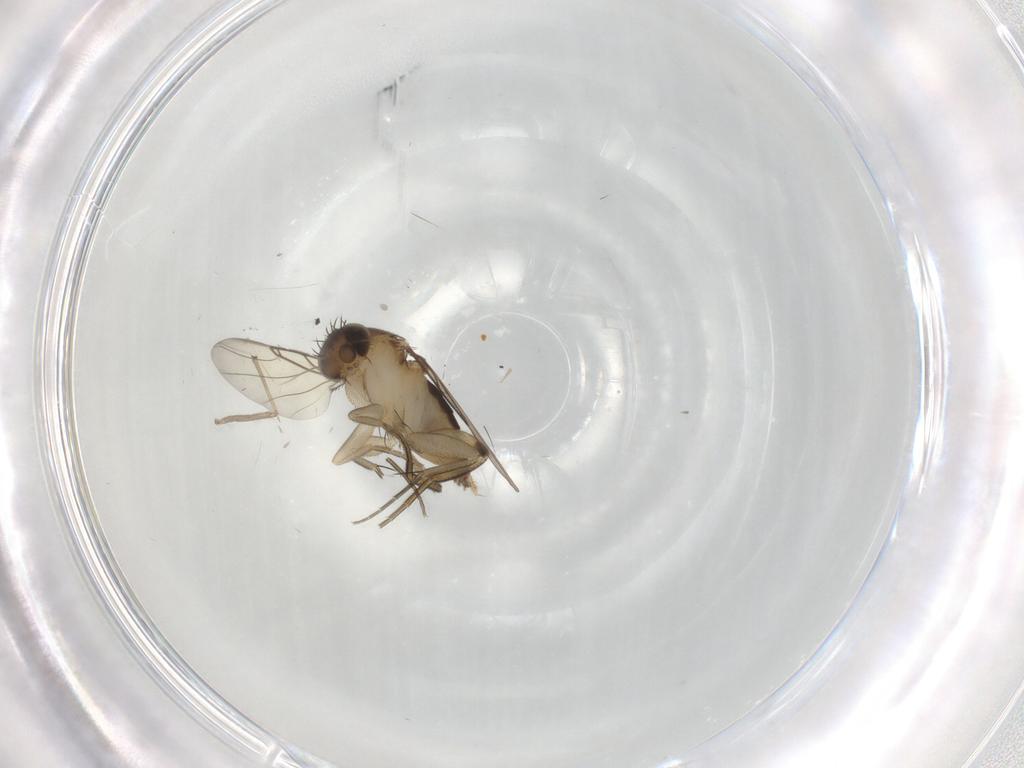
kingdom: Animalia
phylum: Arthropoda
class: Insecta
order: Diptera
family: Phoridae
